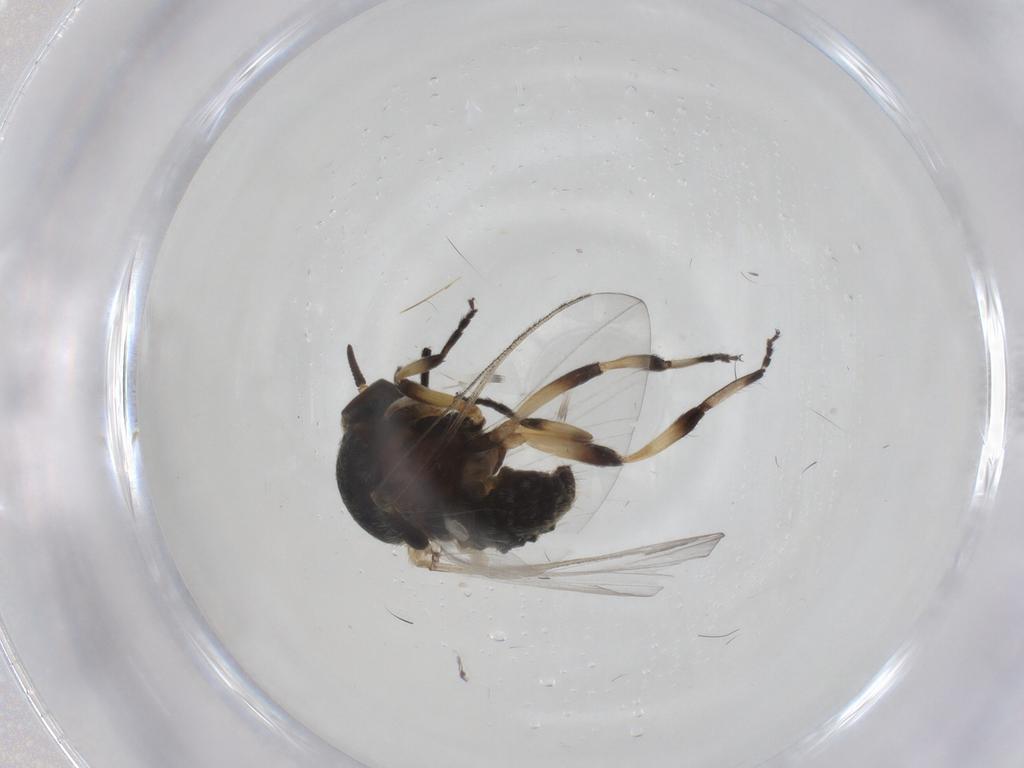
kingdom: Animalia
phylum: Arthropoda
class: Insecta
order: Diptera
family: Simuliidae
